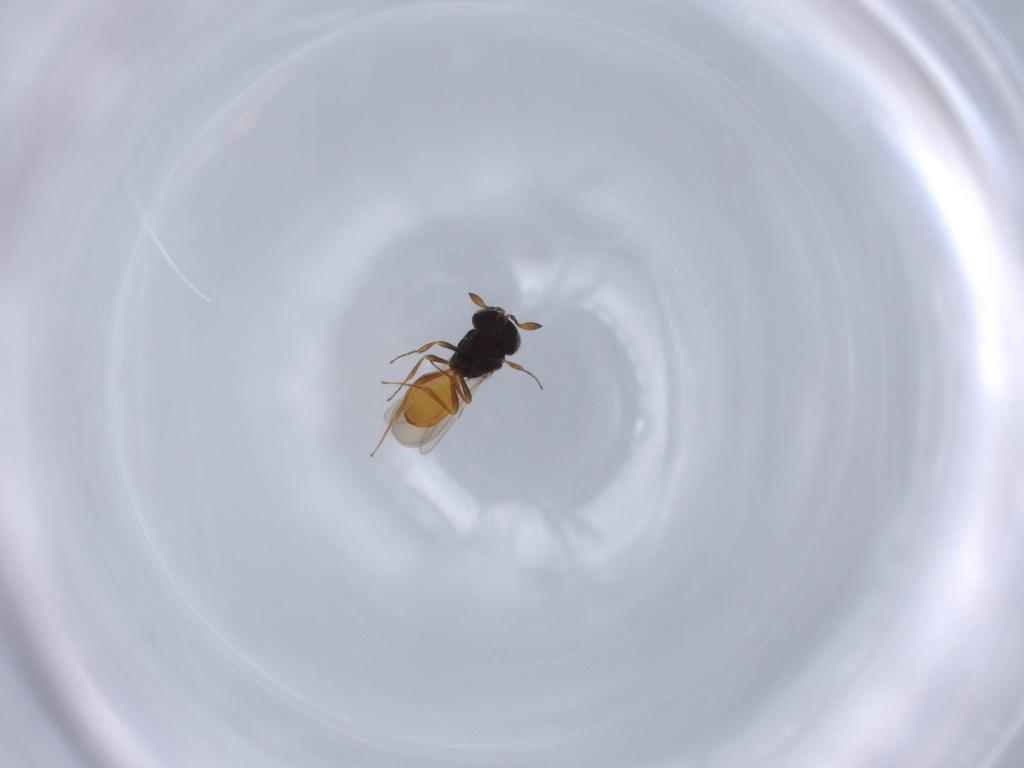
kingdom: Animalia
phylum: Arthropoda
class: Insecta
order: Hymenoptera
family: Scelionidae
